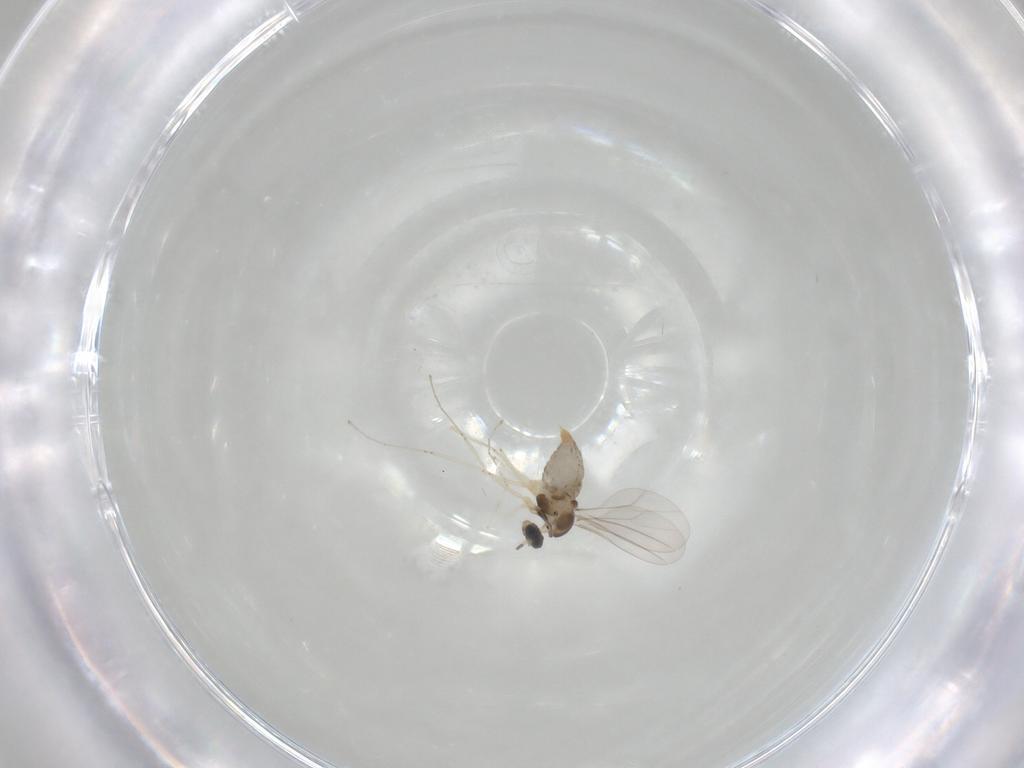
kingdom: Animalia
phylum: Arthropoda
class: Insecta
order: Diptera
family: Cecidomyiidae
